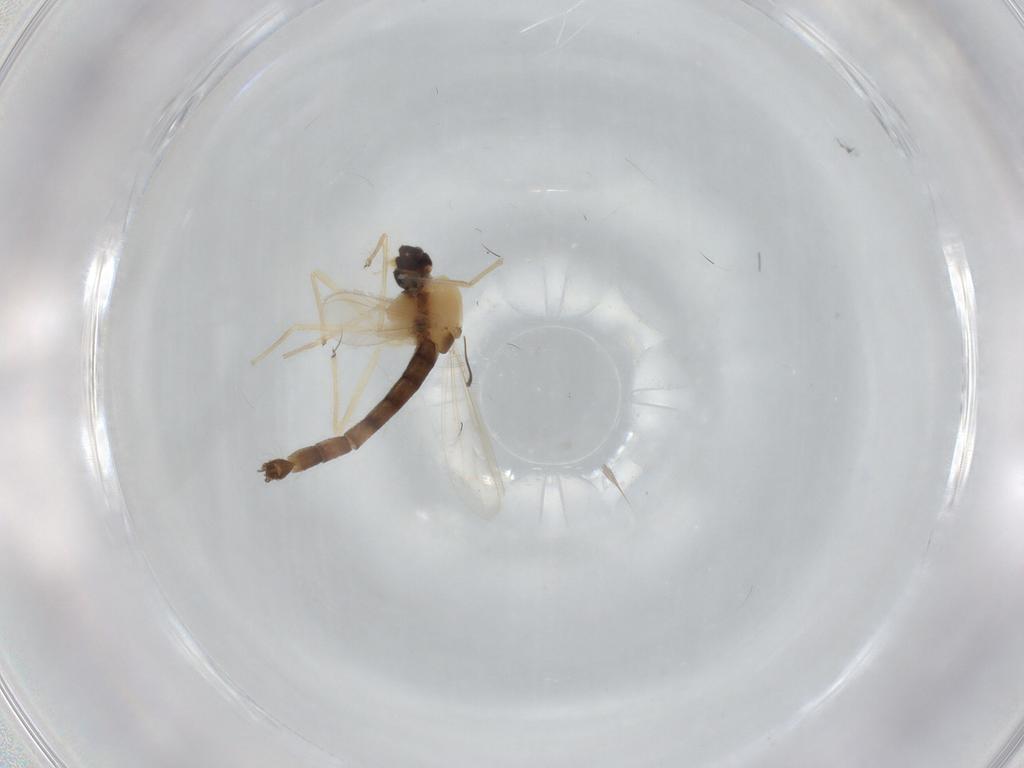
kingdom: Animalia
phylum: Arthropoda
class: Insecta
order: Diptera
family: Chironomidae
